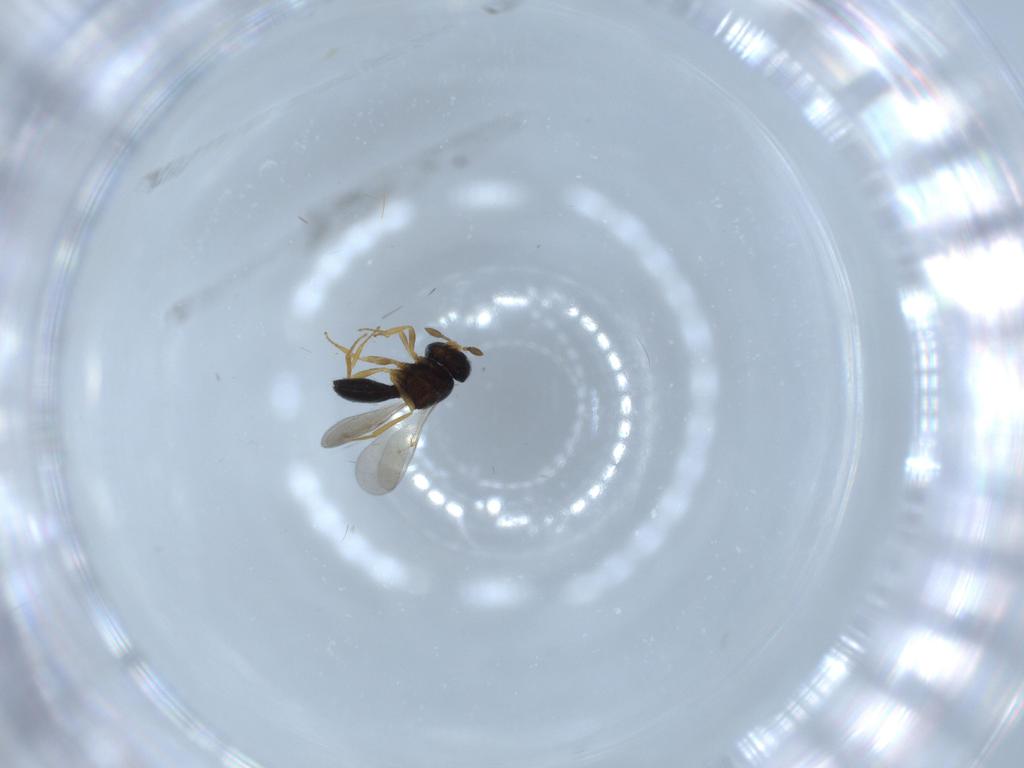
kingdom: Animalia
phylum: Arthropoda
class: Insecta
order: Hymenoptera
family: Scelionidae
